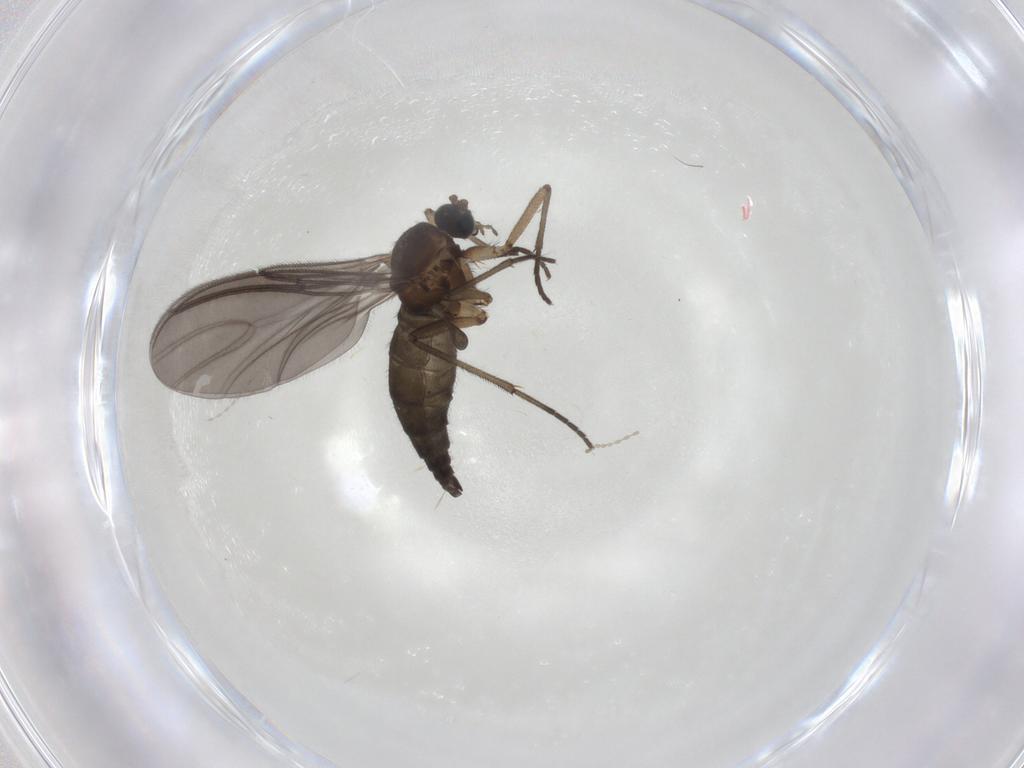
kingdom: Animalia
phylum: Arthropoda
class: Insecta
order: Diptera
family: Sciaridae
